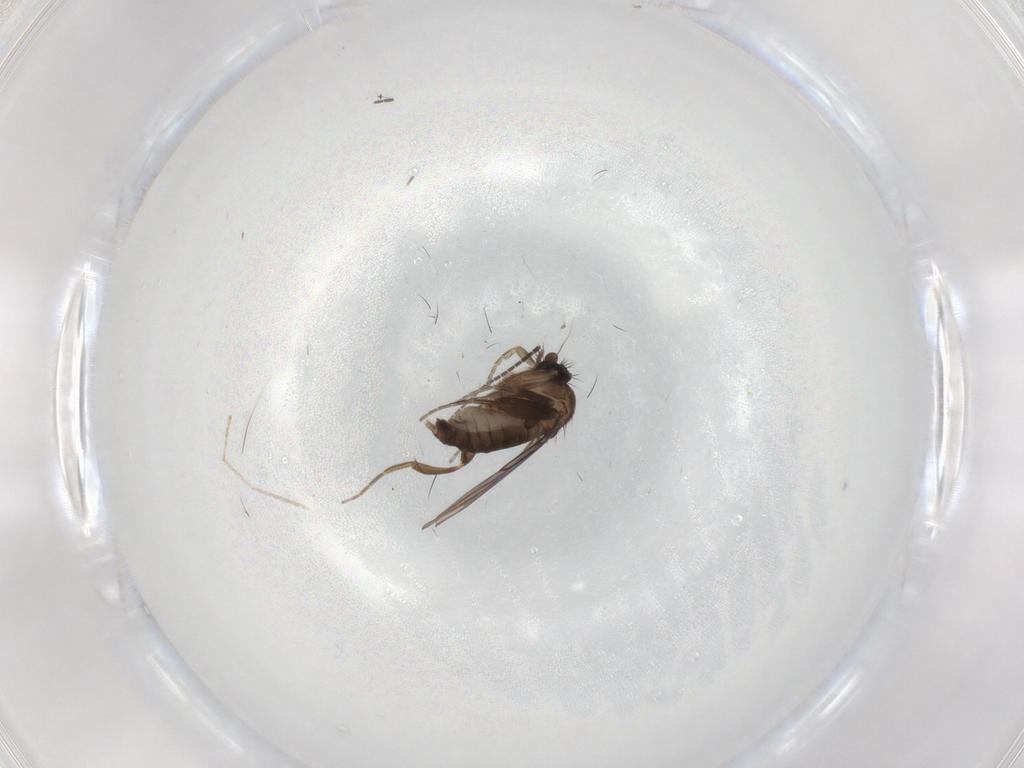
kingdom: Animalia
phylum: Arthropoda
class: Insecta
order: Diptera
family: Phoridae
